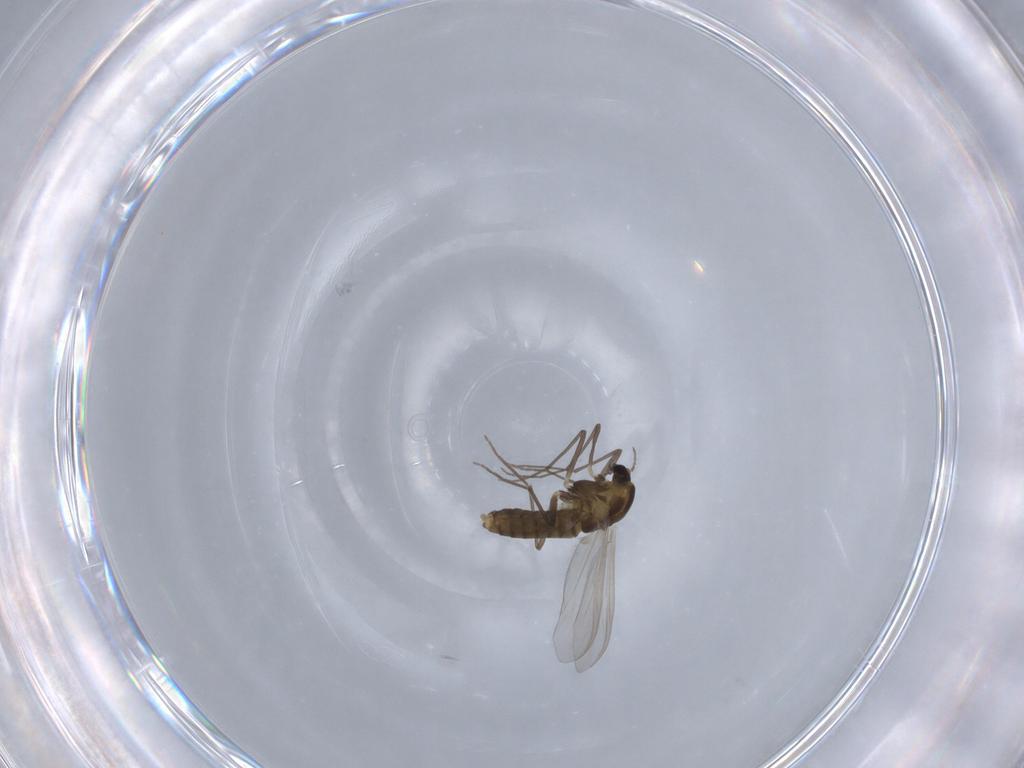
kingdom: Animalia
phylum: Arthropoda
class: Insecta
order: Diptera
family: Chironomidae
